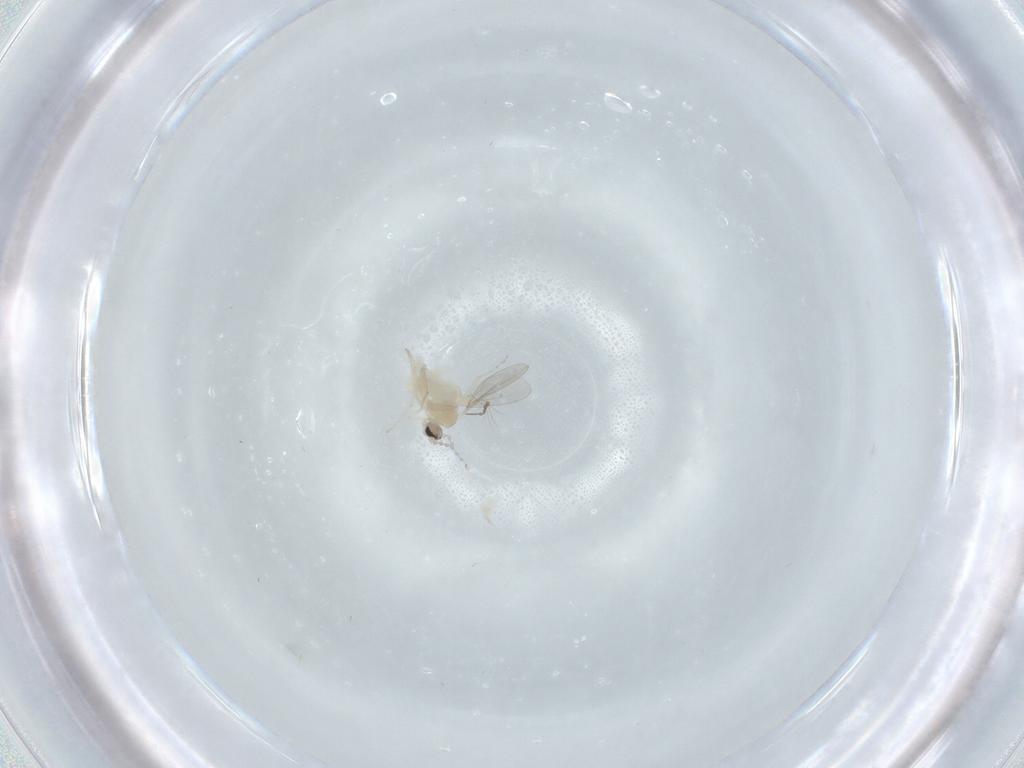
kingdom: Animalia
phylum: Arthropoda
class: Insecta
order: Diptera
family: Cecidomyiidae
